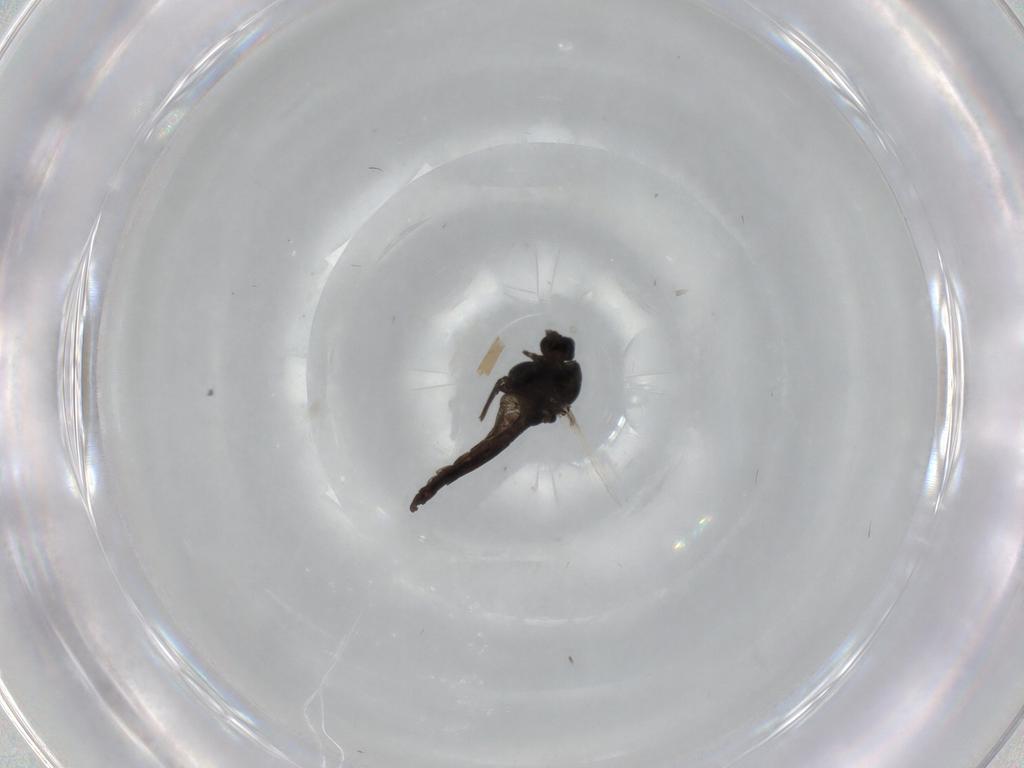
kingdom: Animalia
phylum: Arthropoda
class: Insecta
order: Diptera
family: Chironomidae
